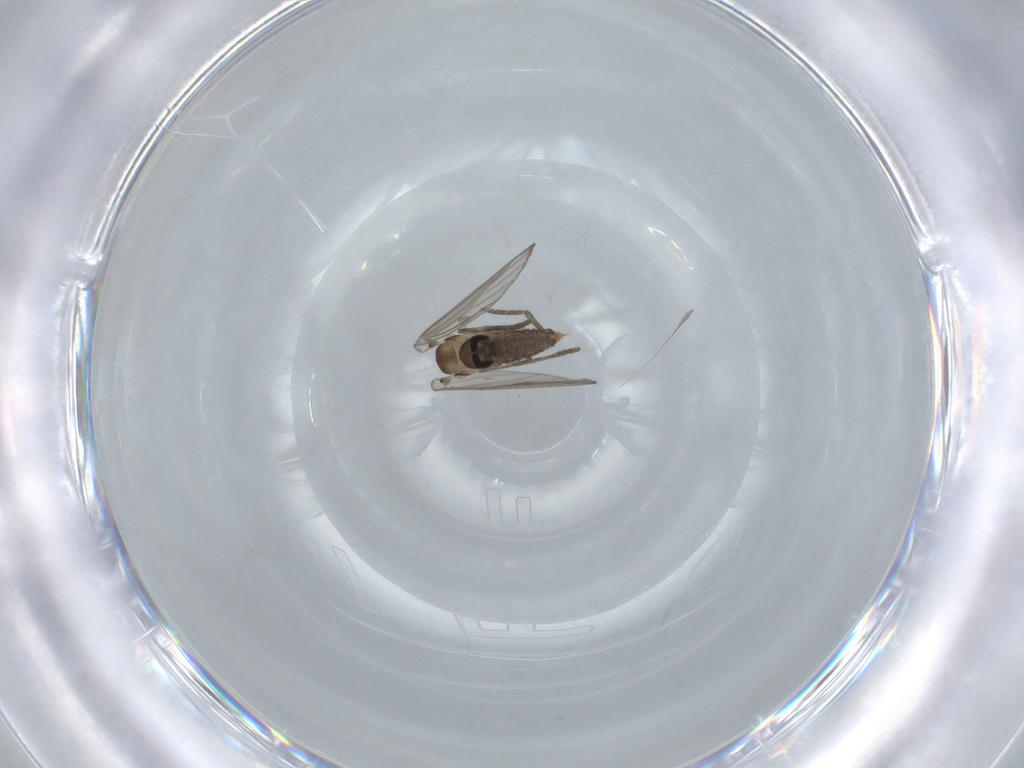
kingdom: Animalia
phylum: Arthropoda
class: Insecta
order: Diptera
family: Psychodidae
